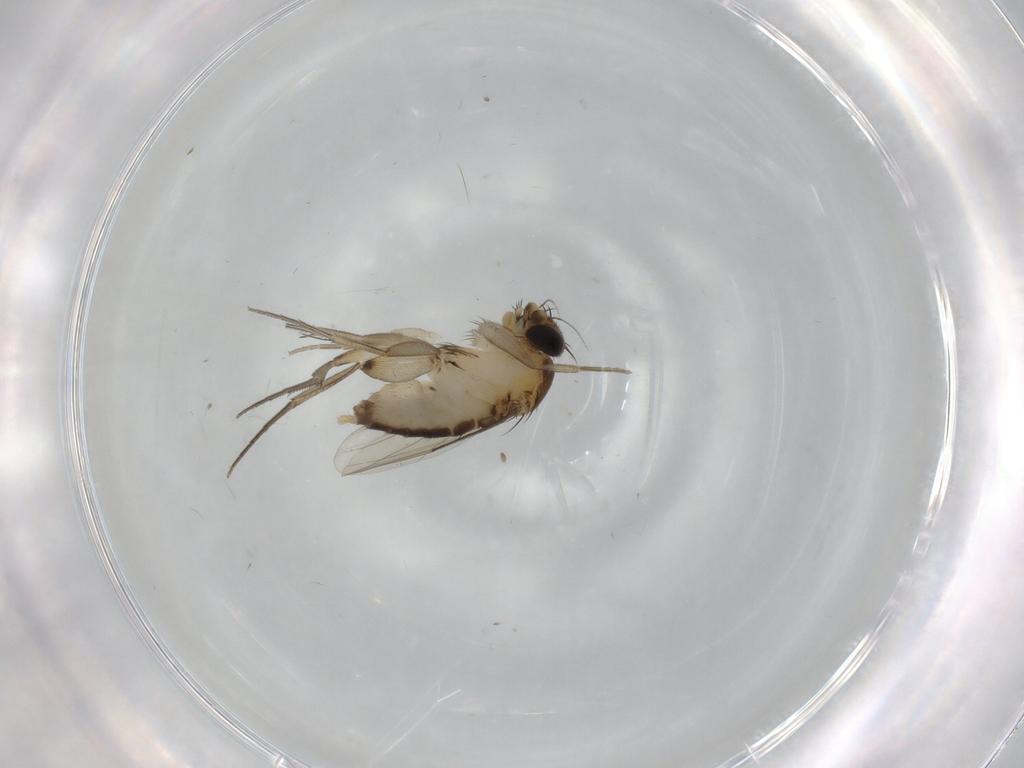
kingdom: Animalia
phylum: Arthropoda
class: Insecta
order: Diptera
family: Phoridae
